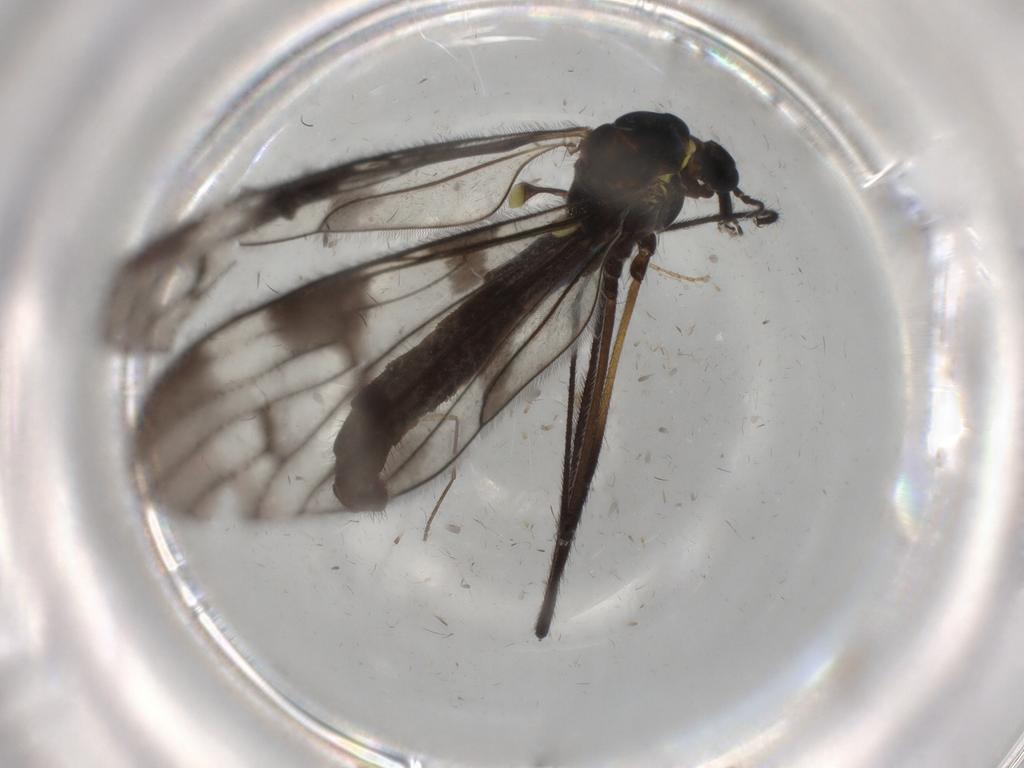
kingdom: Animalia
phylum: Arthropoda
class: Insecta
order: Diptera
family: Limoniidae
